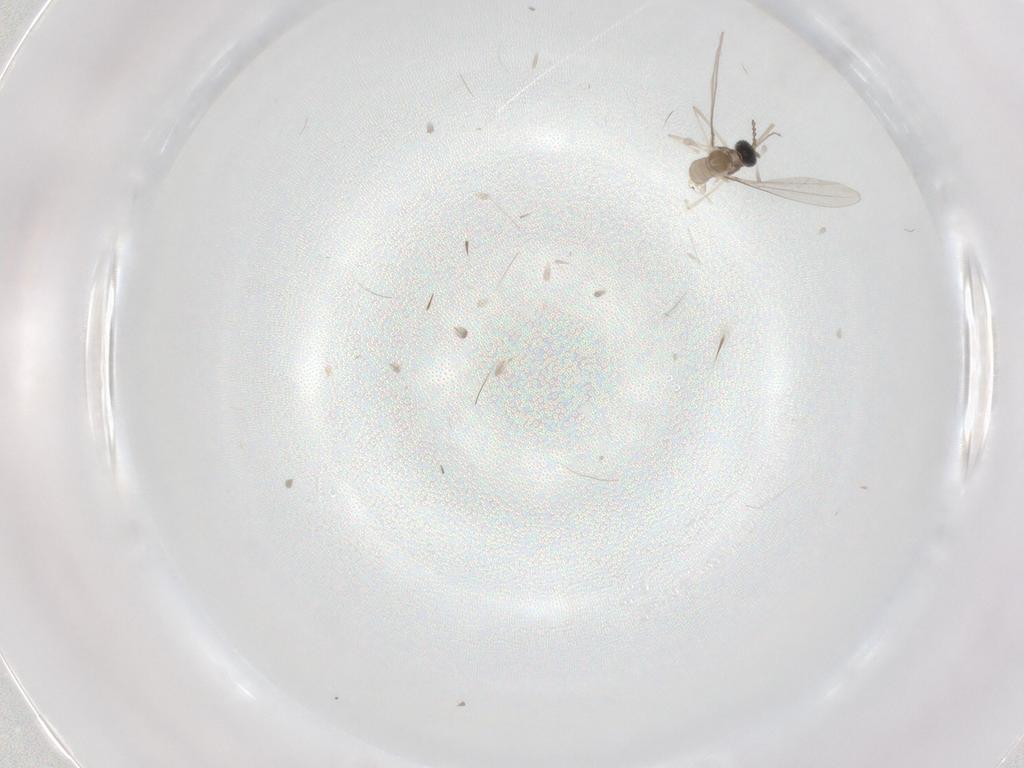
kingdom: Animalia
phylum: Arthropoda
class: Insecta
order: Diptera
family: Cecidomyiidae
